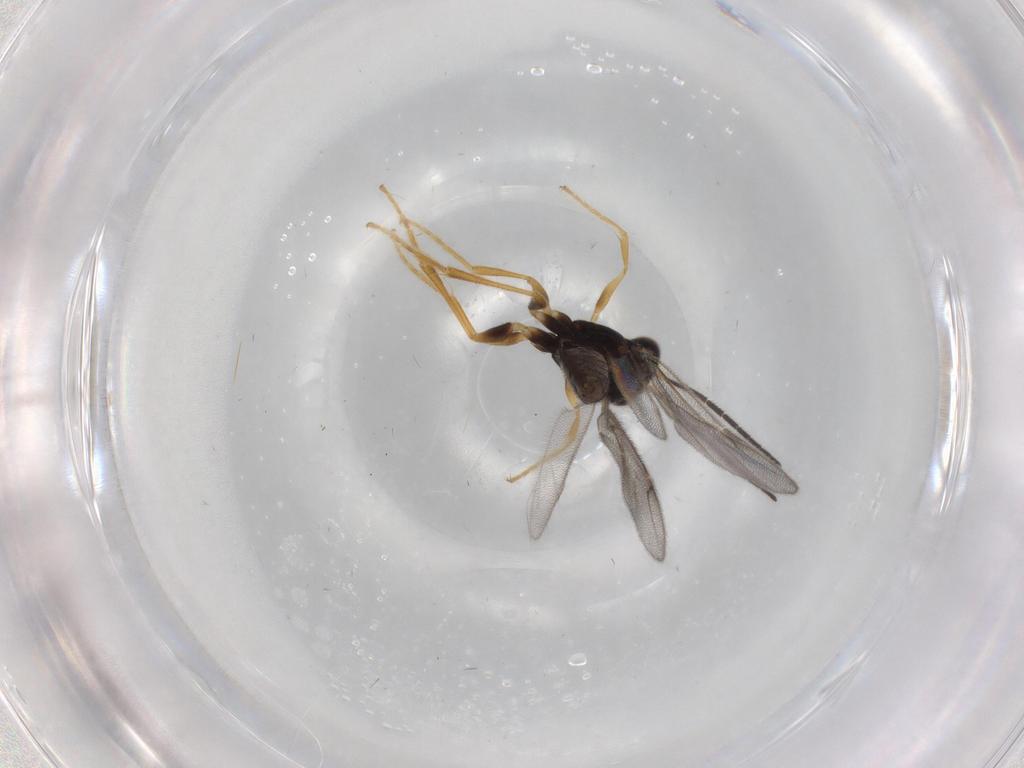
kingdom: Animalia
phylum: Arthropoda
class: Insecta
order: Hymenoptera
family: Dryinidae
